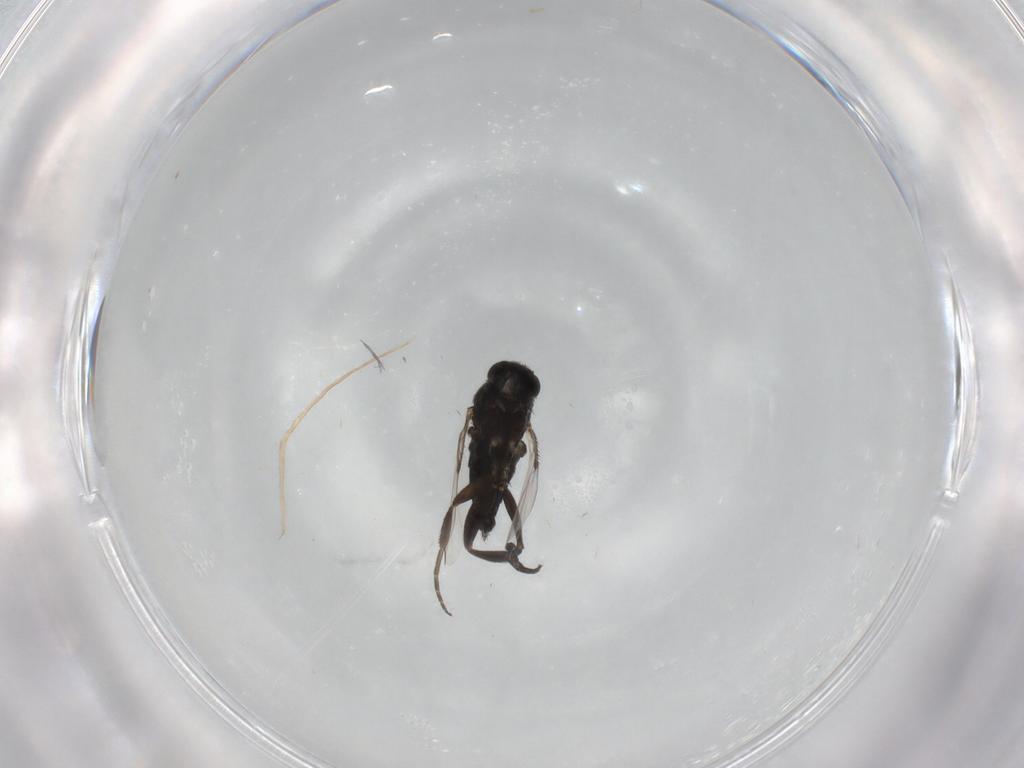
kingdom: Animalia
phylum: Arthropoda
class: Insecta
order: Diptera
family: Phoridae
